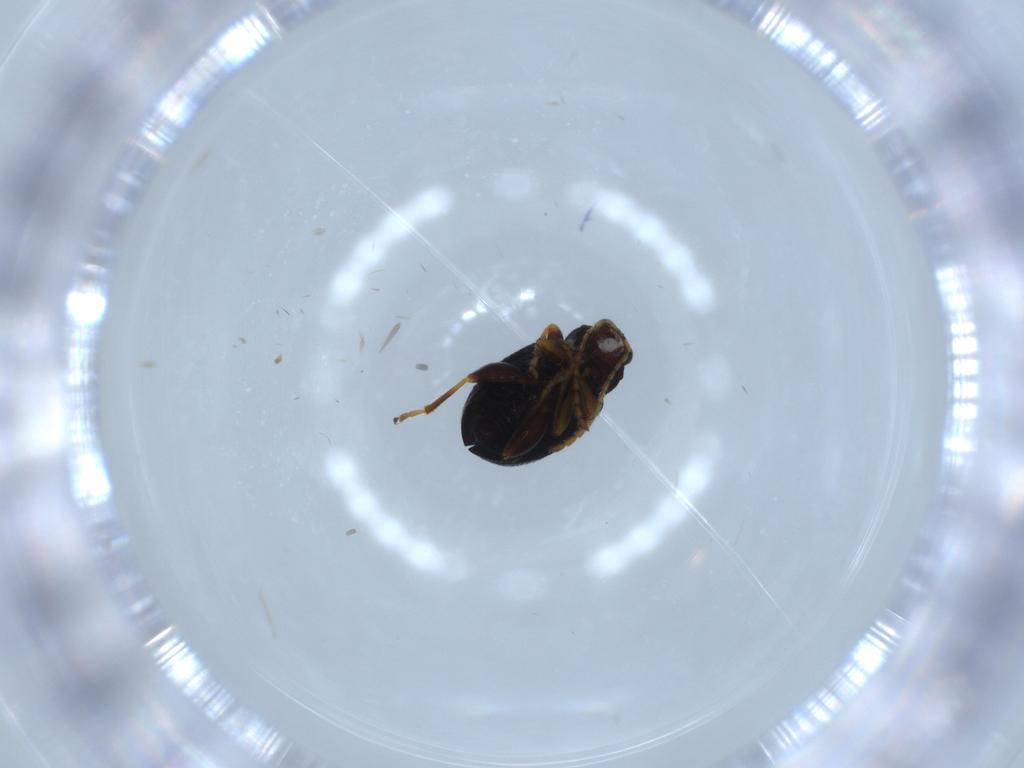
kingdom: Animalia
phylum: Arthropoda
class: Insecta
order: Coleoptera
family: Chrysomelidae
